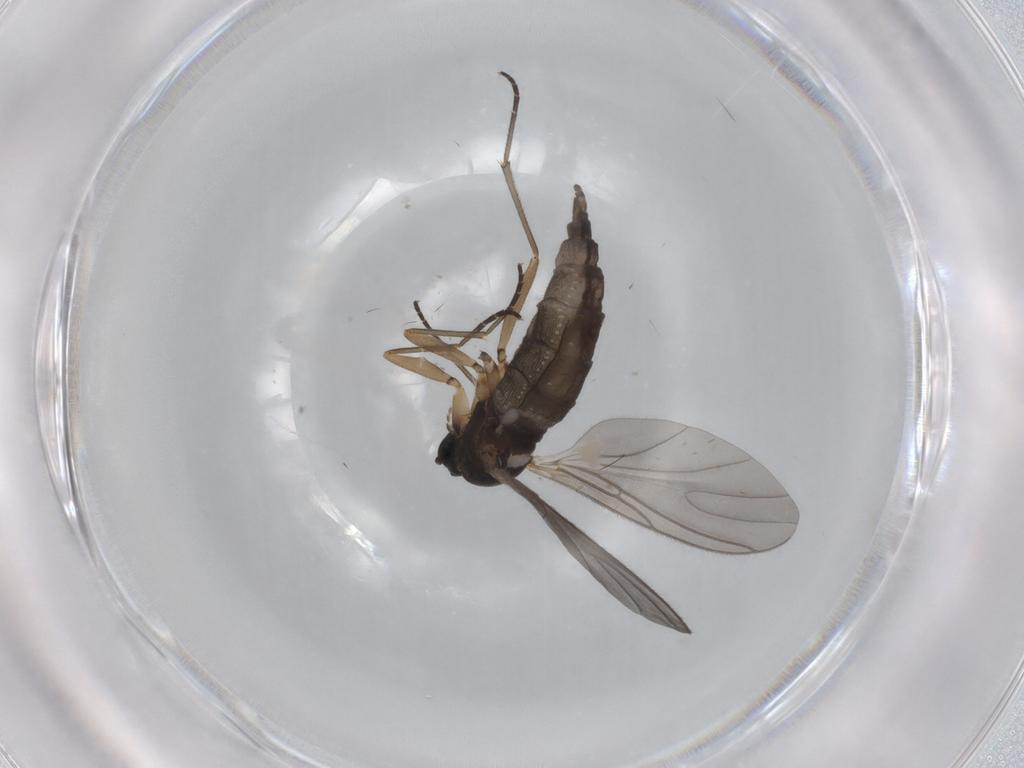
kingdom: Animalia
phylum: Arthropoda
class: Insecta
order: Diptera
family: Sciaridae
